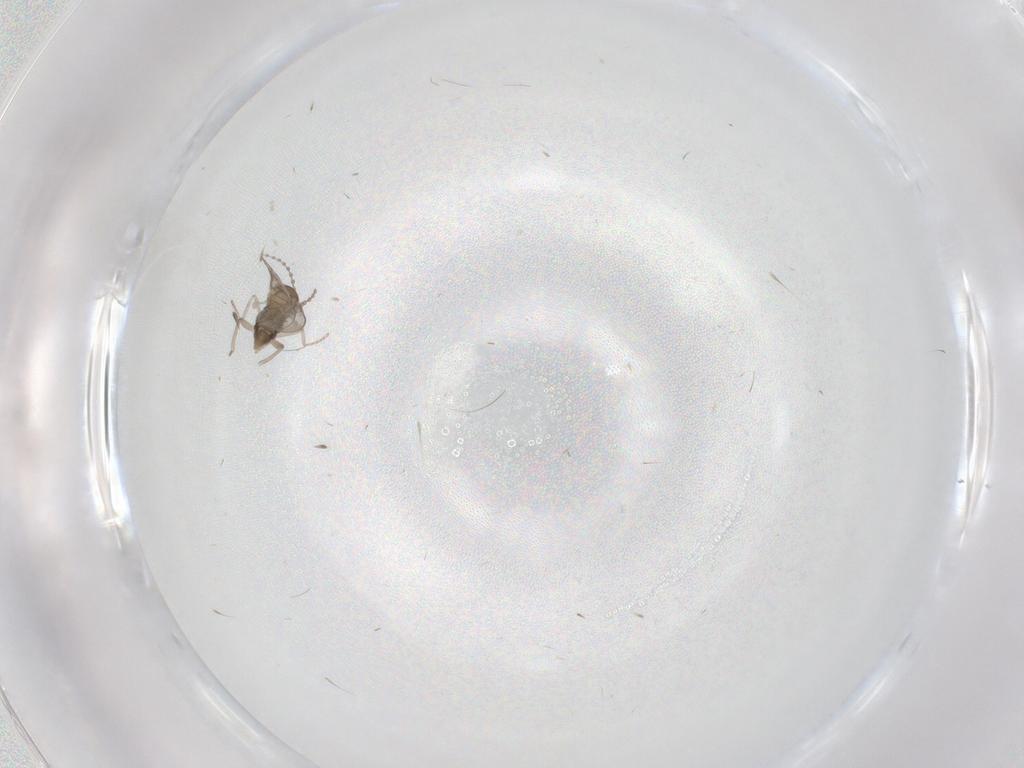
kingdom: Animalia
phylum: Arthropoda
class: Insecta
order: Diptera
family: Cecidomyiidae
